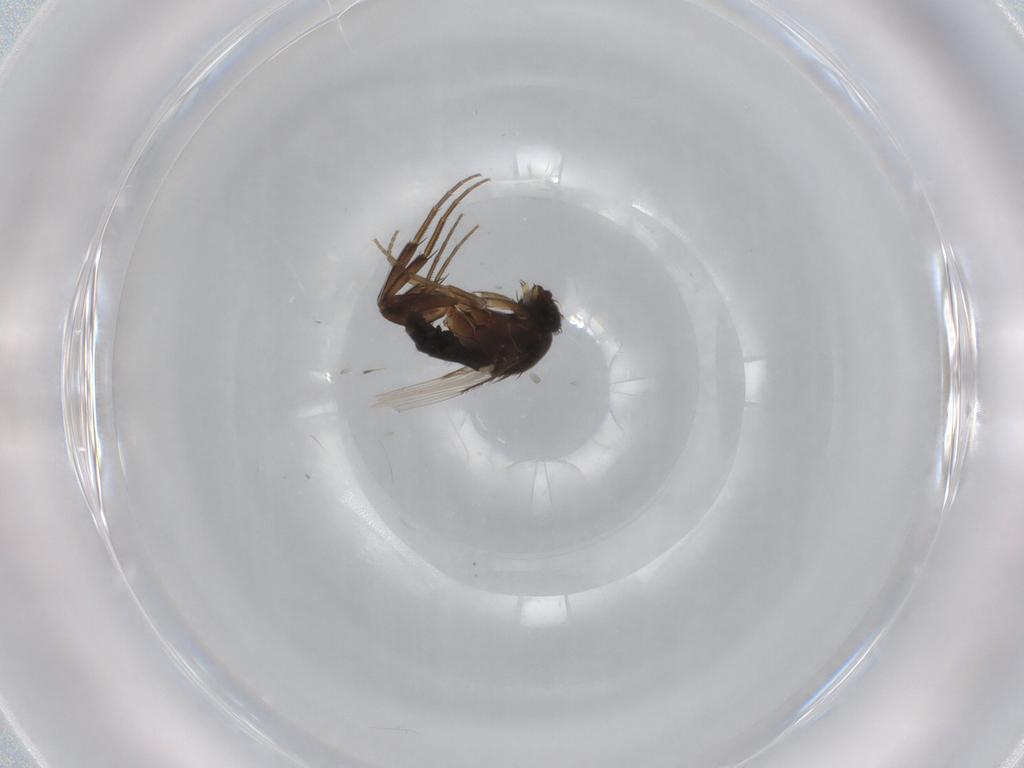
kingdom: Animalia
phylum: Arthropoda
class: Insecta
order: Diptera
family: Phoridae
